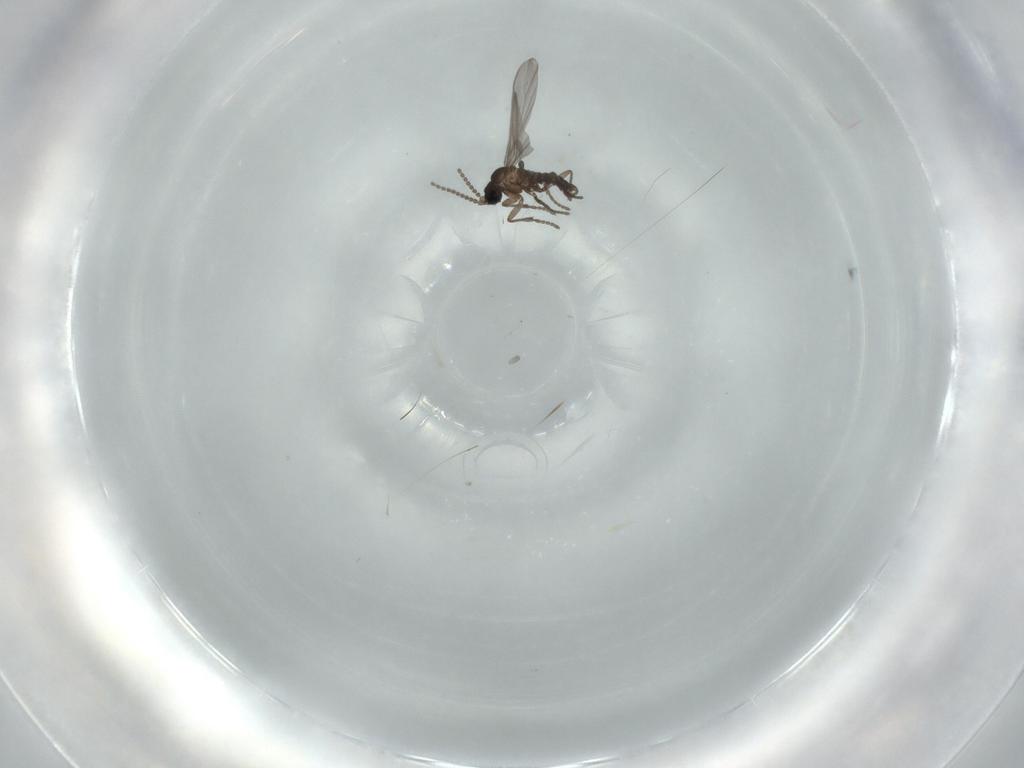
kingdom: Animalia
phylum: Arthropoda
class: Insecta
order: Diptera
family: Sciaridae
